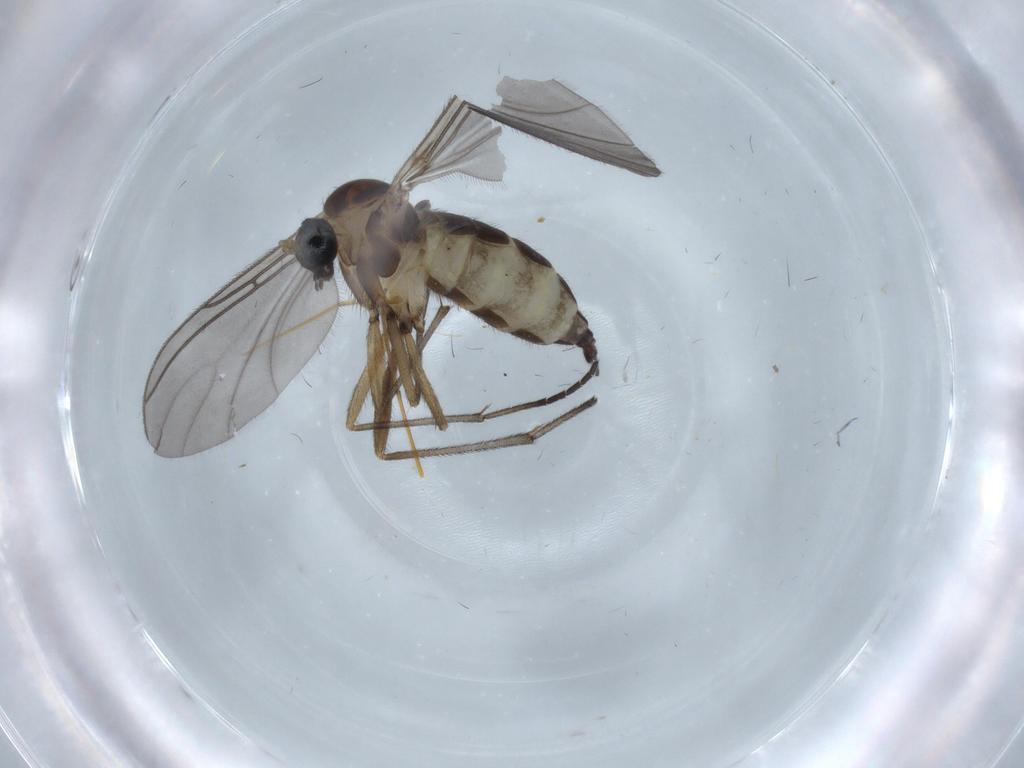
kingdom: Animalia
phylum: Arthropoda
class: Insecta
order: Diptera
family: Sciaridae
